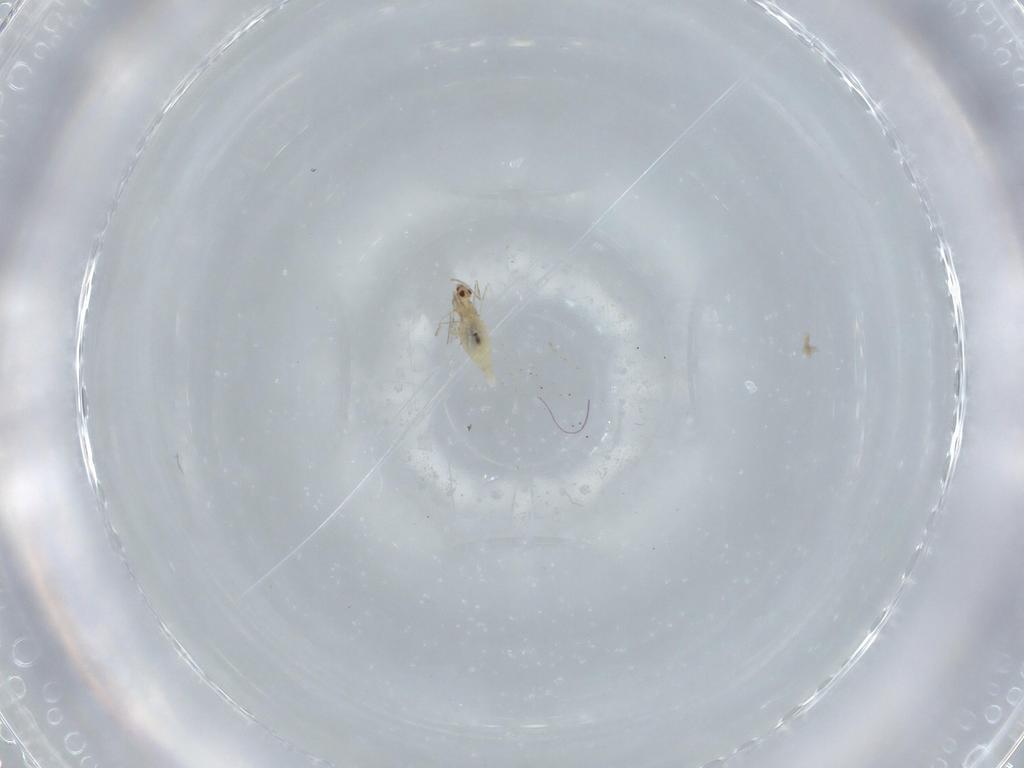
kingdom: Animalia
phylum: Arthropoda
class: Insecta
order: Diptera
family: Cecidomyiidae
